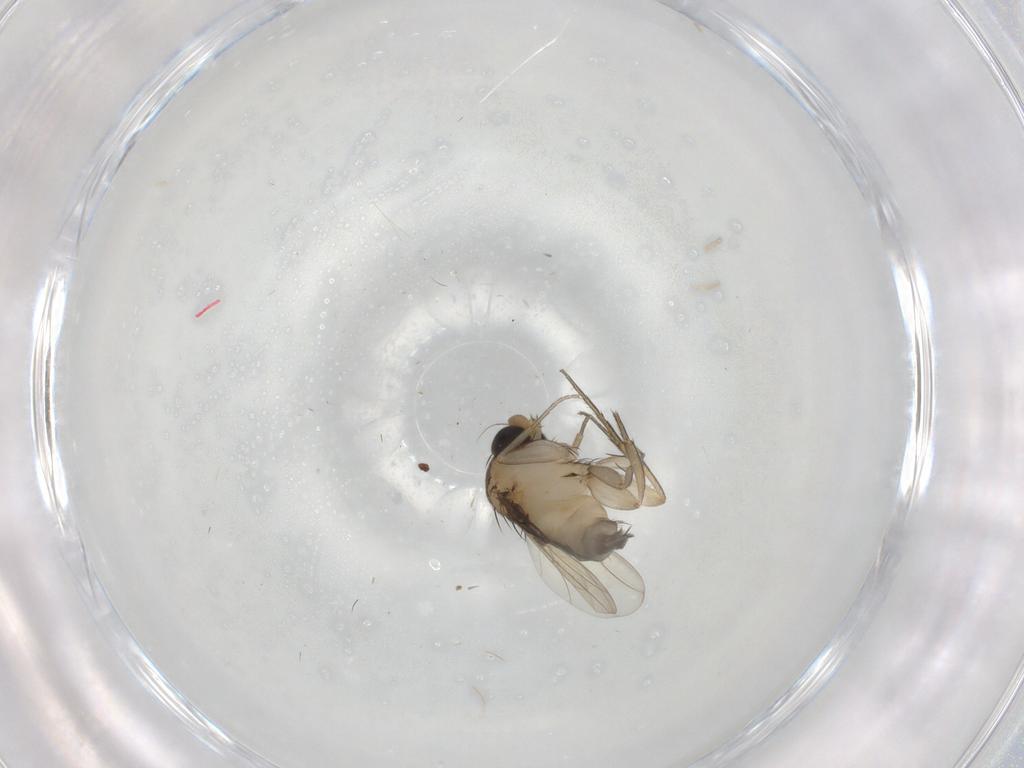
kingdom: Animalia
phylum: Arthropoda
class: Insecta
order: Diptera
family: Phoridae
